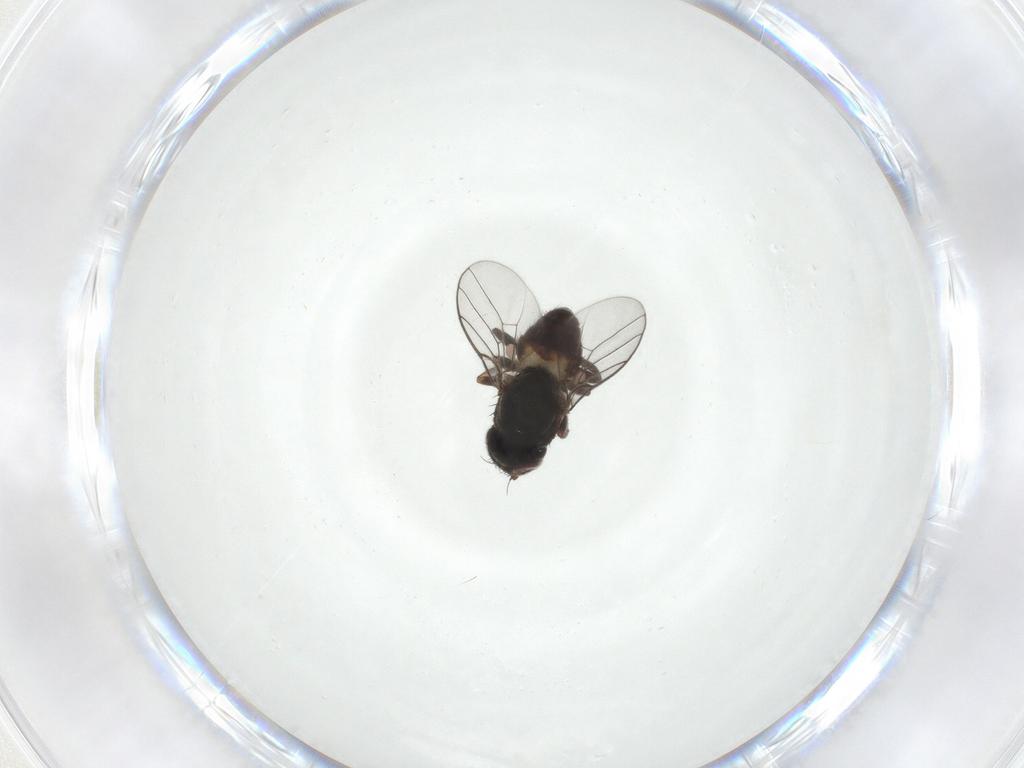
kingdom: Animalia
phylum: Arthropoda
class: Insecta
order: Diptera
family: Chloropidae
